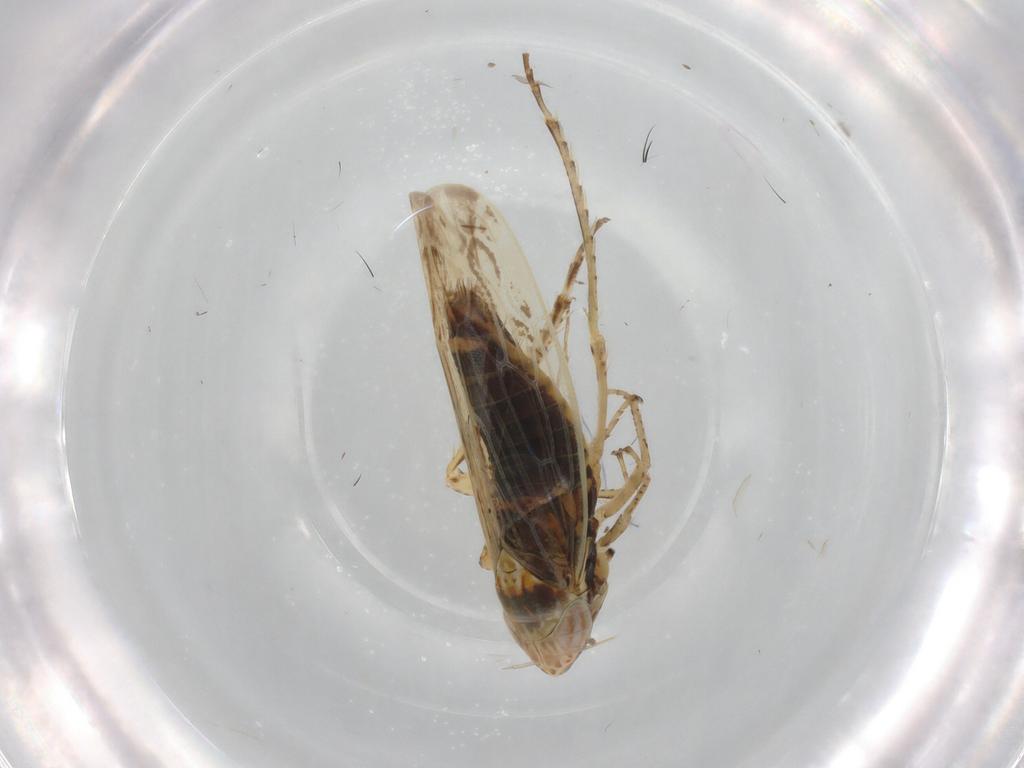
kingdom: Animalia
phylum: Arthropoda
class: Insecta
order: Hemiptera
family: Cicadellidae
